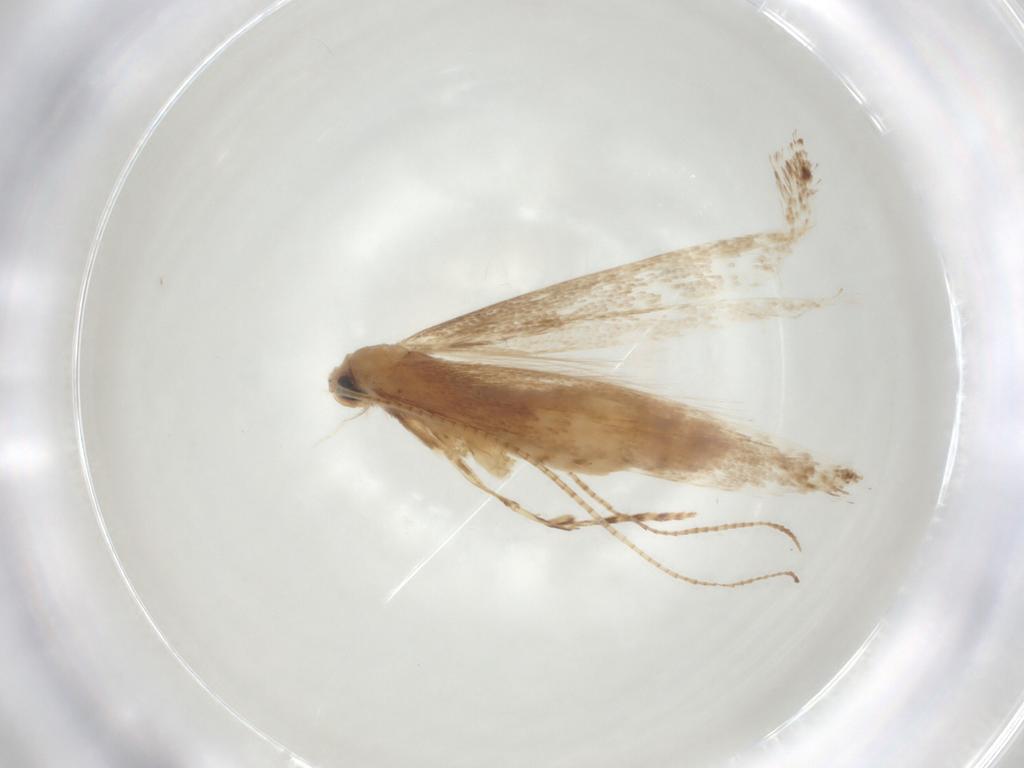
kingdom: Animalia
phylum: Arthropoda
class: Insecta
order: Lepidoptera
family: Gracillariidae
